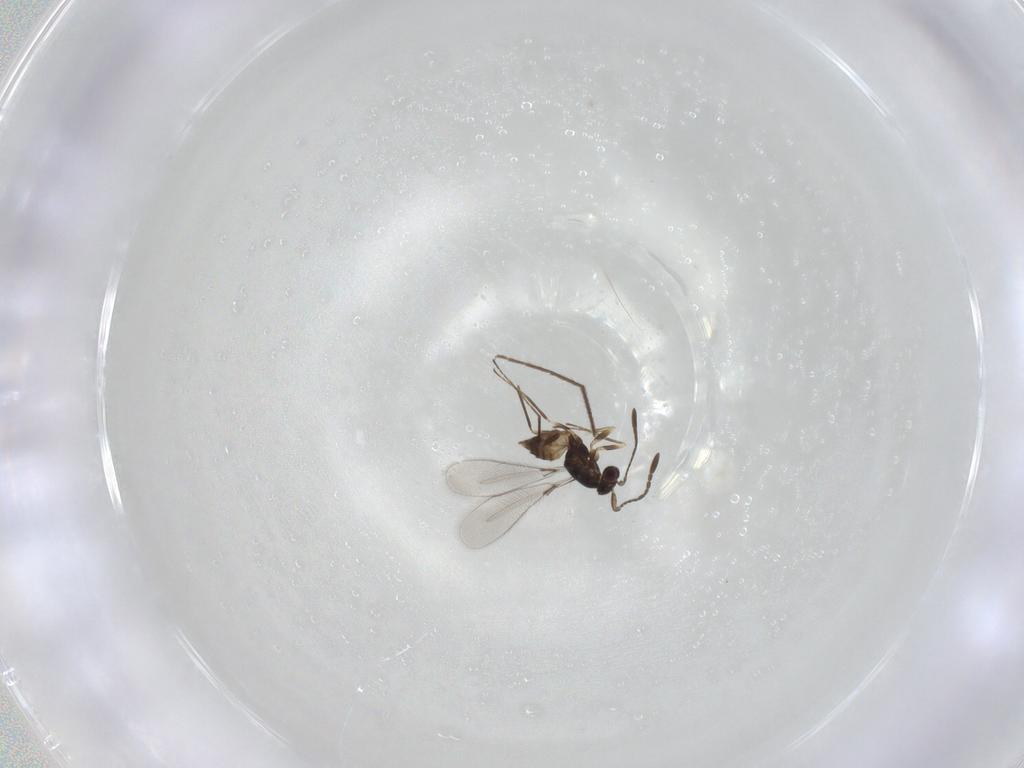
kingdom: Animalia
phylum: Arthropoda
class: Insecta
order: Hymenoptera
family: Mymaridae
